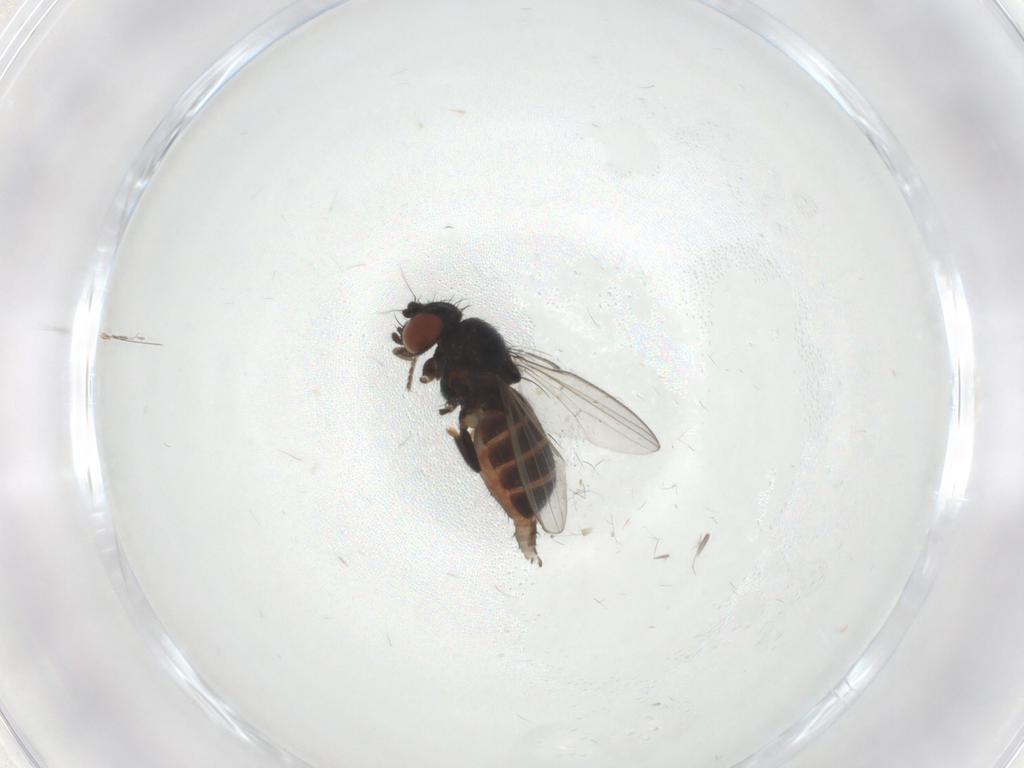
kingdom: Animalia
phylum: Arthropoda
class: Insecta
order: Diptera
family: Milichiidae
